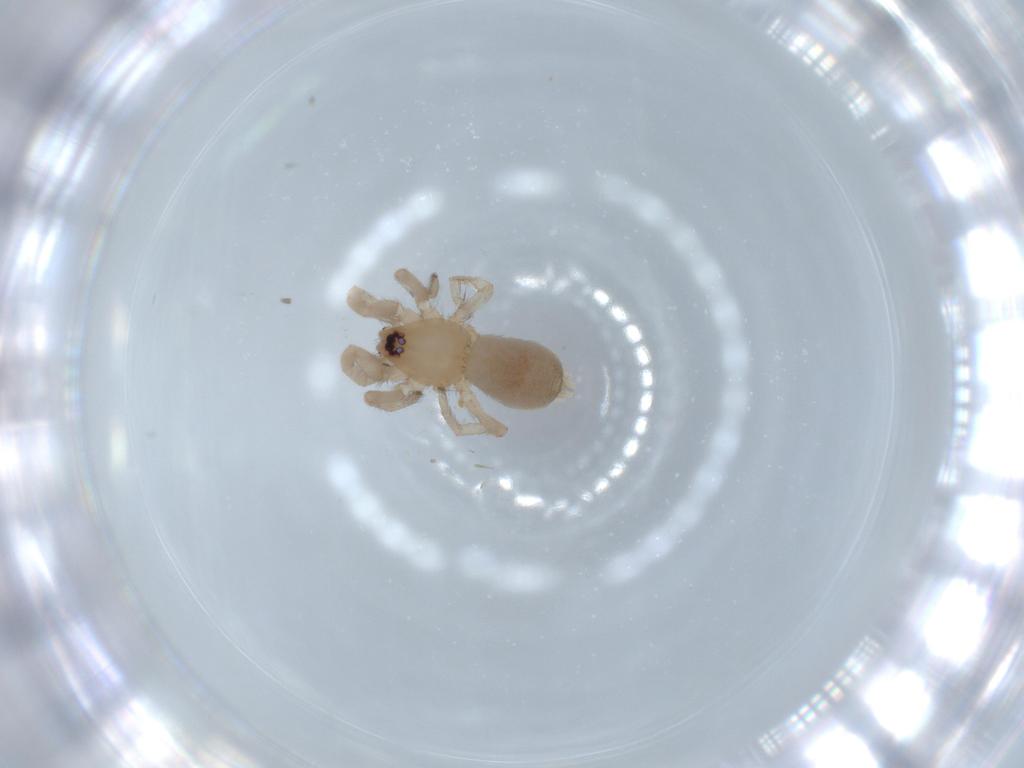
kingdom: Animalia
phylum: Arthropoda
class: Arachnida
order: Araneae
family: Gnaphosidae
